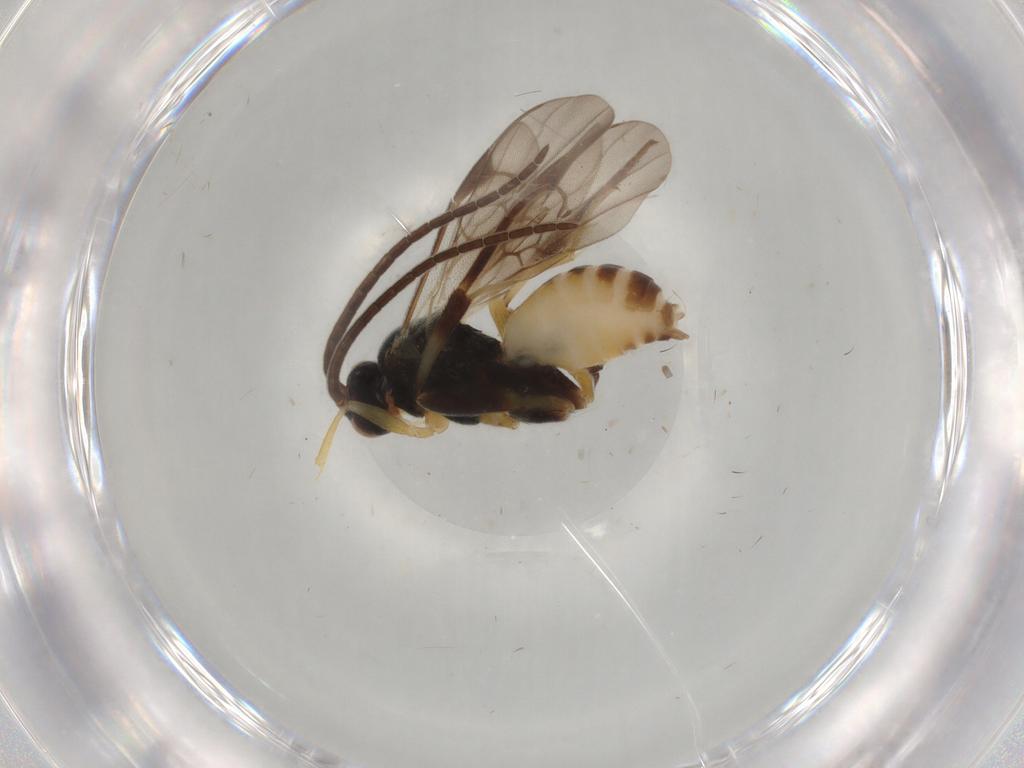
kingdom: Animalia
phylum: Arthropoda
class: Insecta
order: Hymenoptera
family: Braconidae
